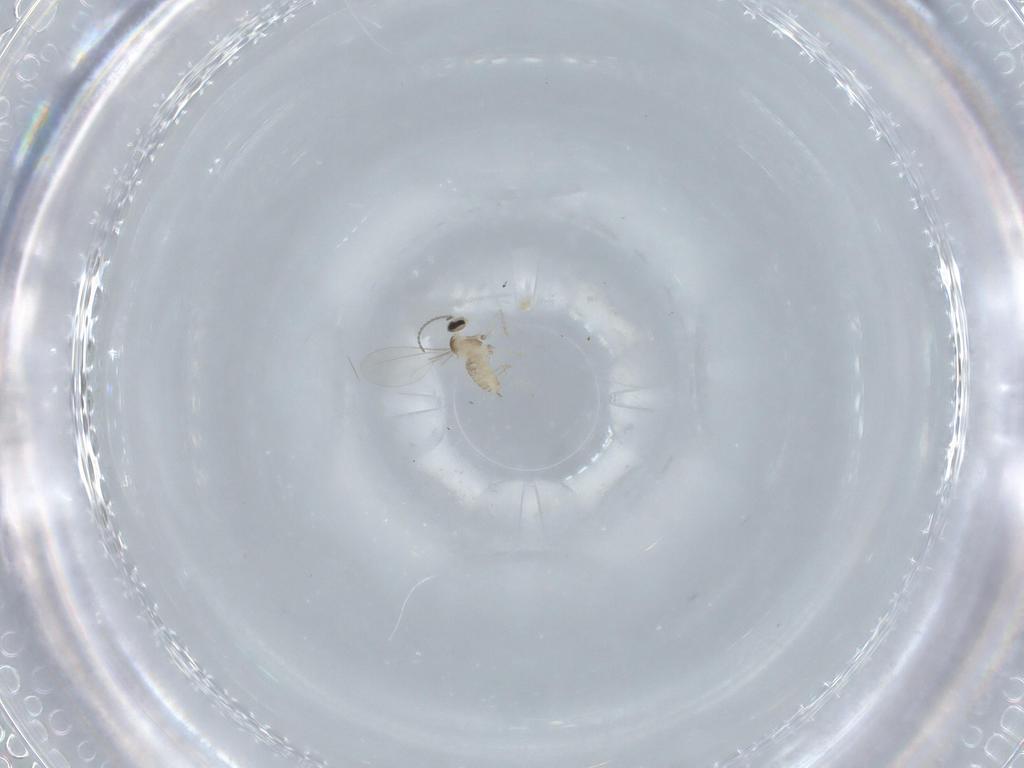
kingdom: Animalia
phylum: Arthropoda
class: Insecta
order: Diptera
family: Cecidomyiidae
